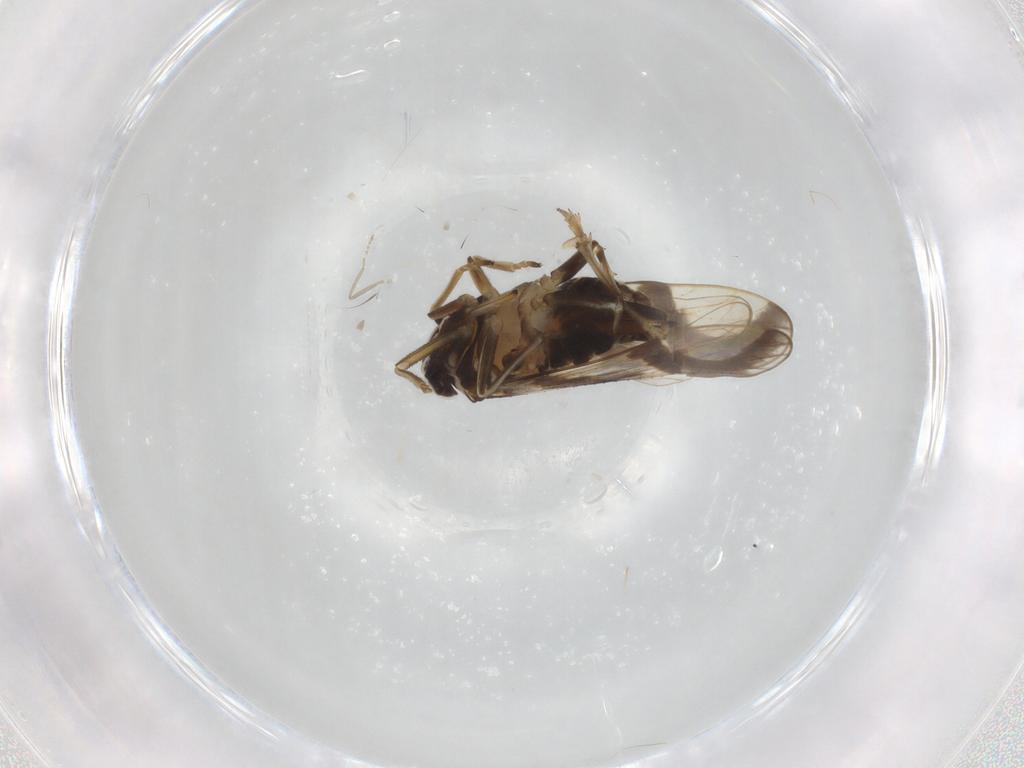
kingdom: Animalia
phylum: Arthropoda
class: Insecta
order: Hemiptera
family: Delphacidae
